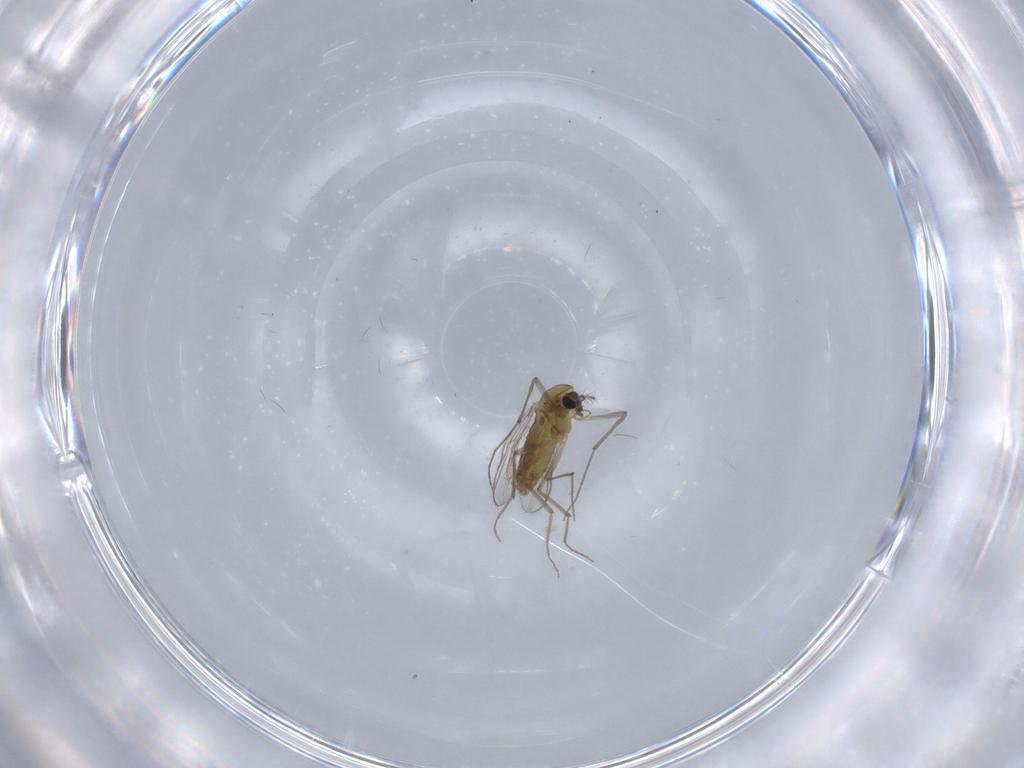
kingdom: Animalia
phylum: Arthropoda
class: Insecta
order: Diptera
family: Chironomidae
